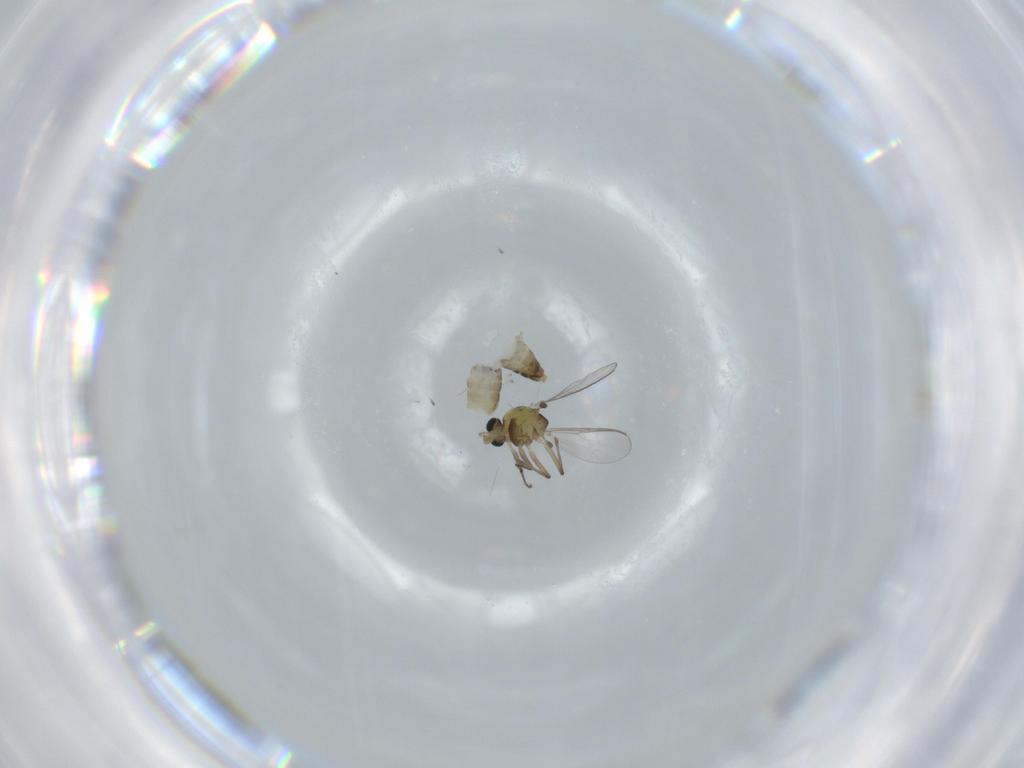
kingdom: Animalia
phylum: Arthropoda
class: Insecta
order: Diptera
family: Chironomidae
